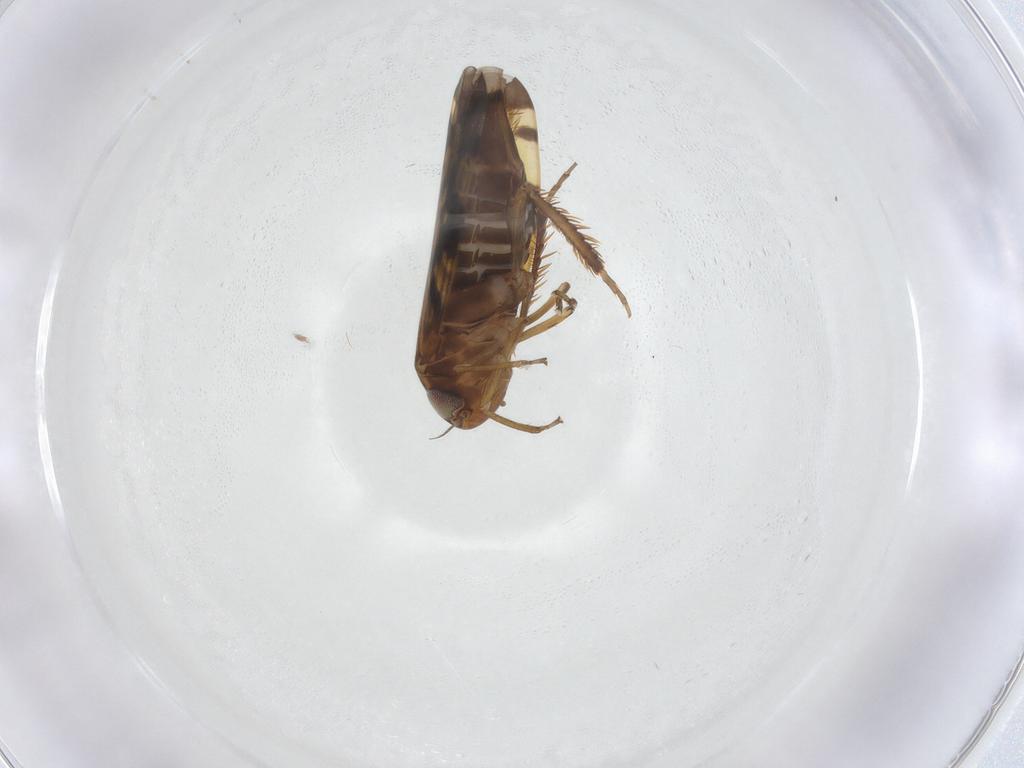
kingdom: Animalia
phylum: Arthropoda
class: Insecta
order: Hemiptera
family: Cicadellidae
